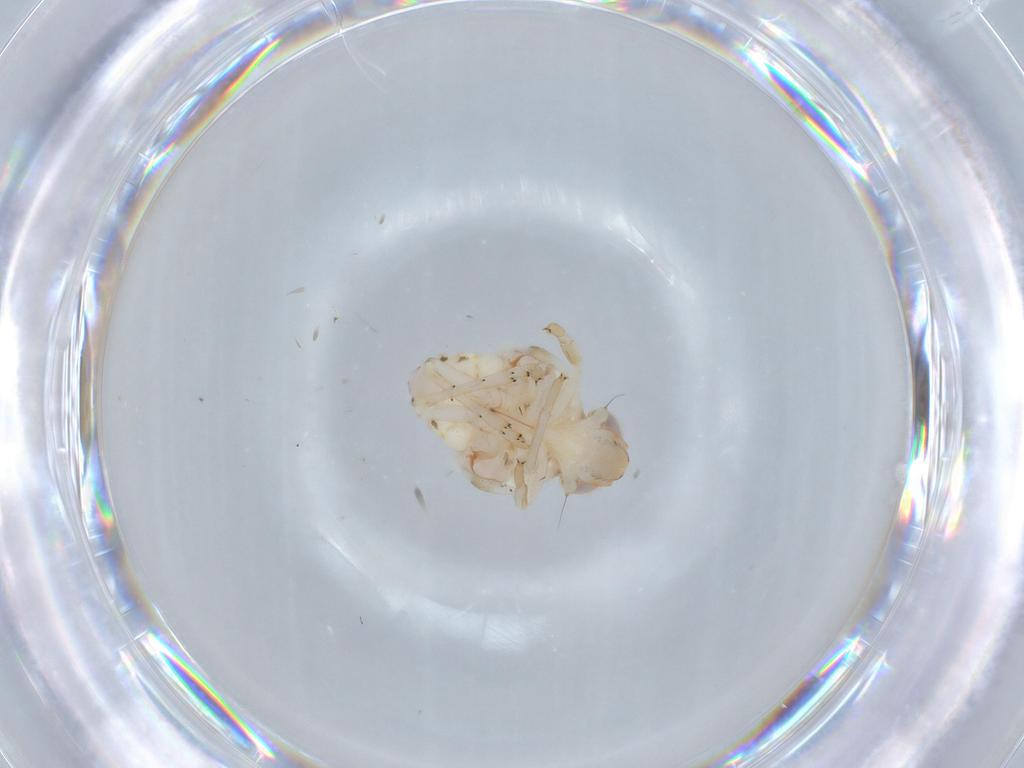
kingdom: Animalia
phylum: Arthropoda
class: Insecta
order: Hemiptera
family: Nogodinidae
